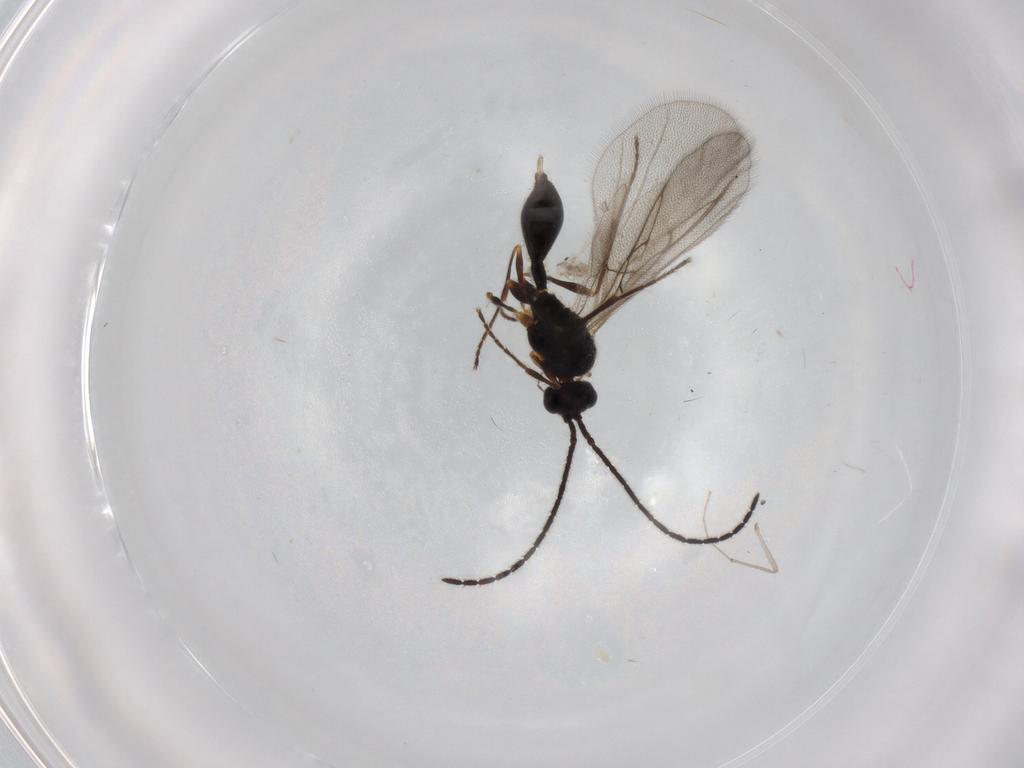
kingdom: Animalia
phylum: Arthropoda
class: Insecta
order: Hymenoptera
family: Diapriidae
